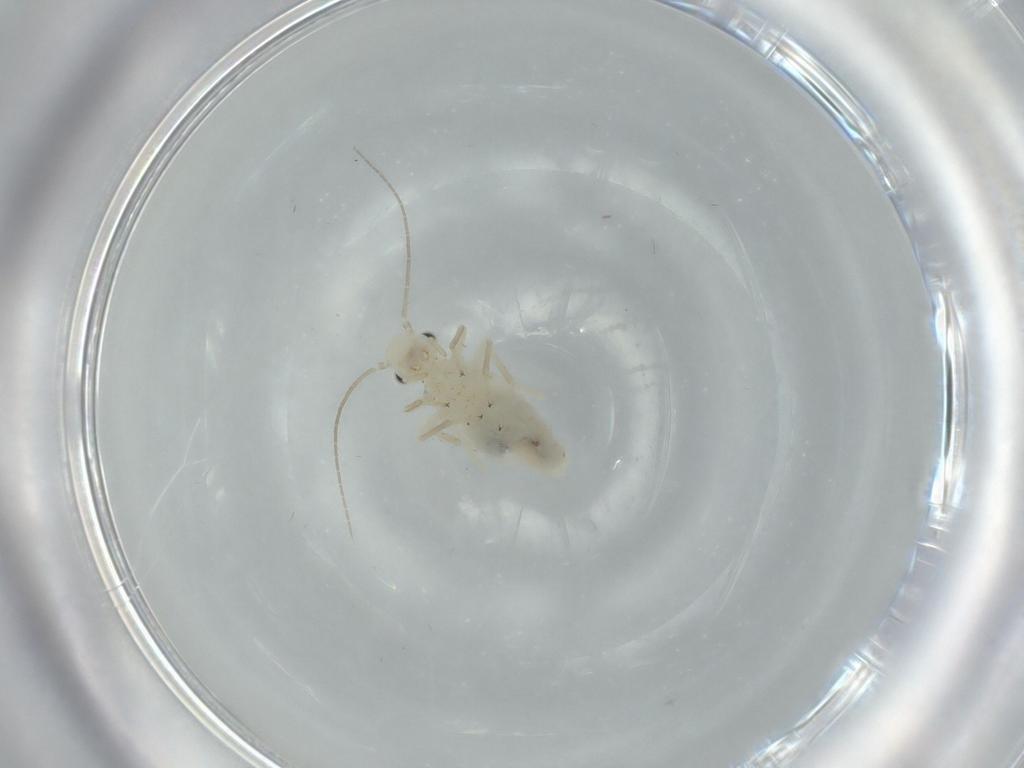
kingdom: Animalia
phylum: Arthropoda
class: Insecta
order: Psocodea
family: Caeciliusidae
